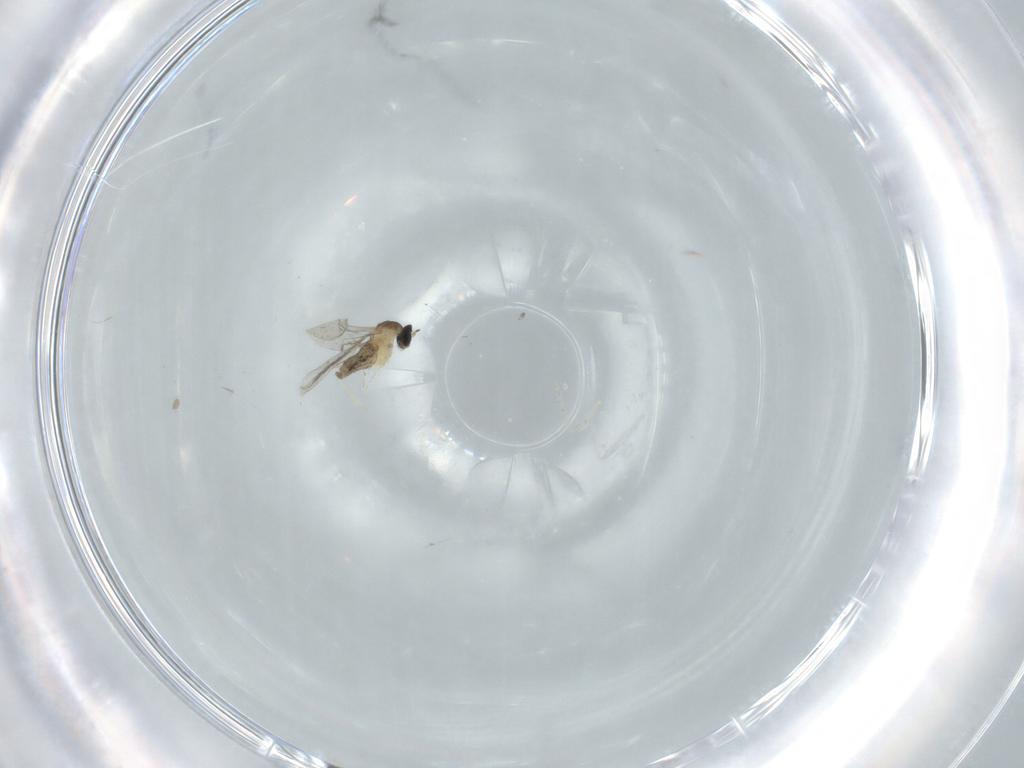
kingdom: Animalia
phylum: Arthropoda
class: Insecta
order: Diptera
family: Cecidomyiidae
